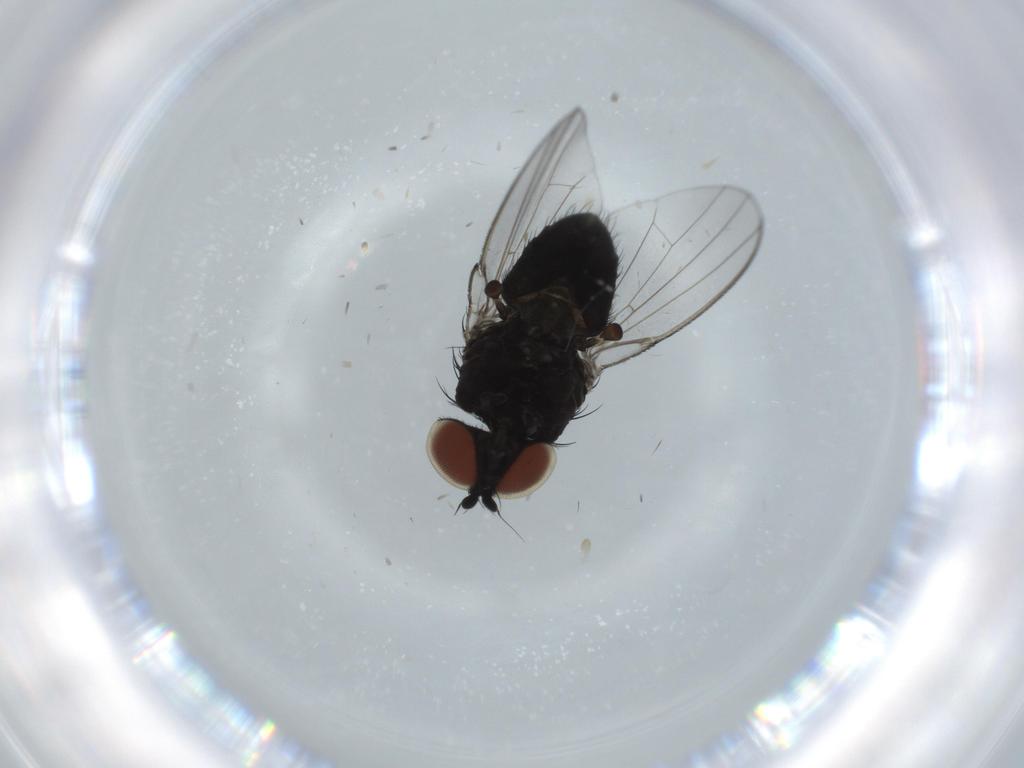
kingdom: Animalia
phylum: Arthropoda
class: Insecta
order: Diptera
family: Milichiidae
